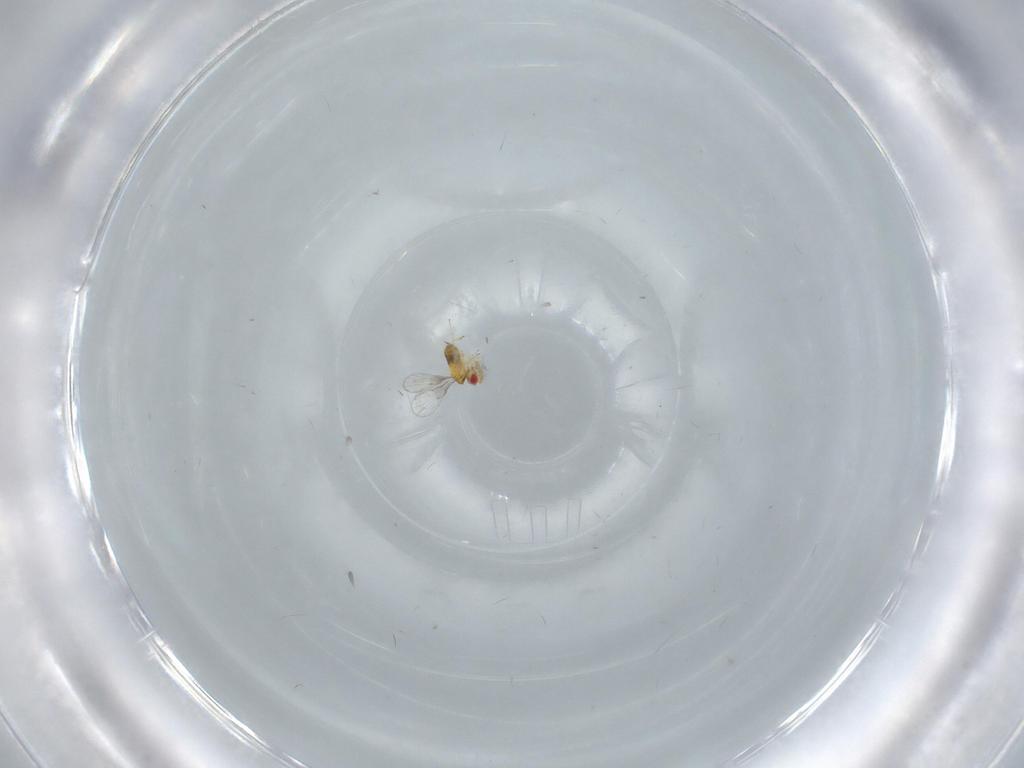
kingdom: Animalia
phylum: Arthropoda
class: Insecta
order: Hymenoptera
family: Trichogrammatidae
